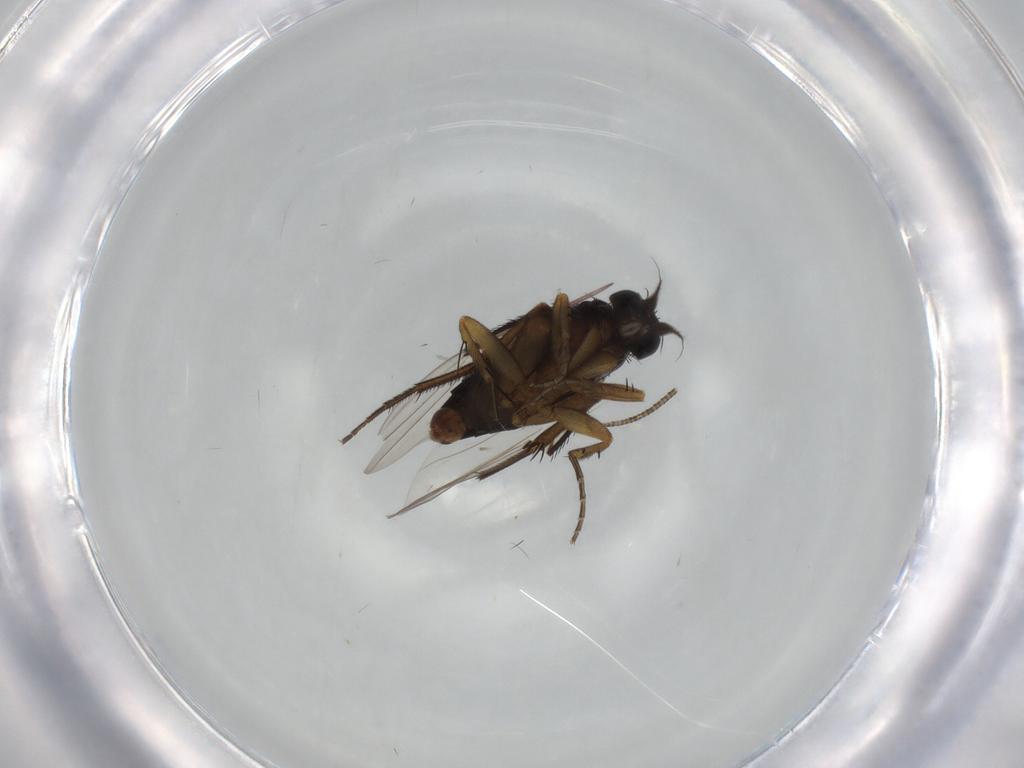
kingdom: Animalia
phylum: Arthropoda
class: Insecta
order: Diptera
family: Phoridae
